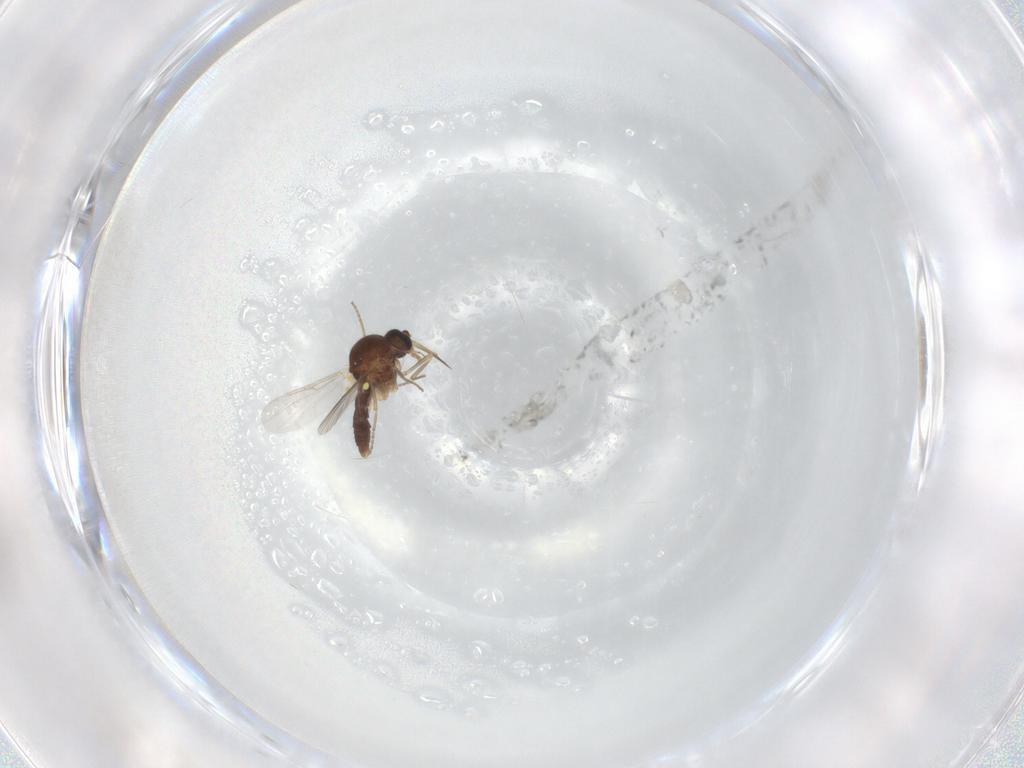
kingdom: Animalia
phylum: Arthropoda
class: Insecta
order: Diptera
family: Ceratopogonidae
